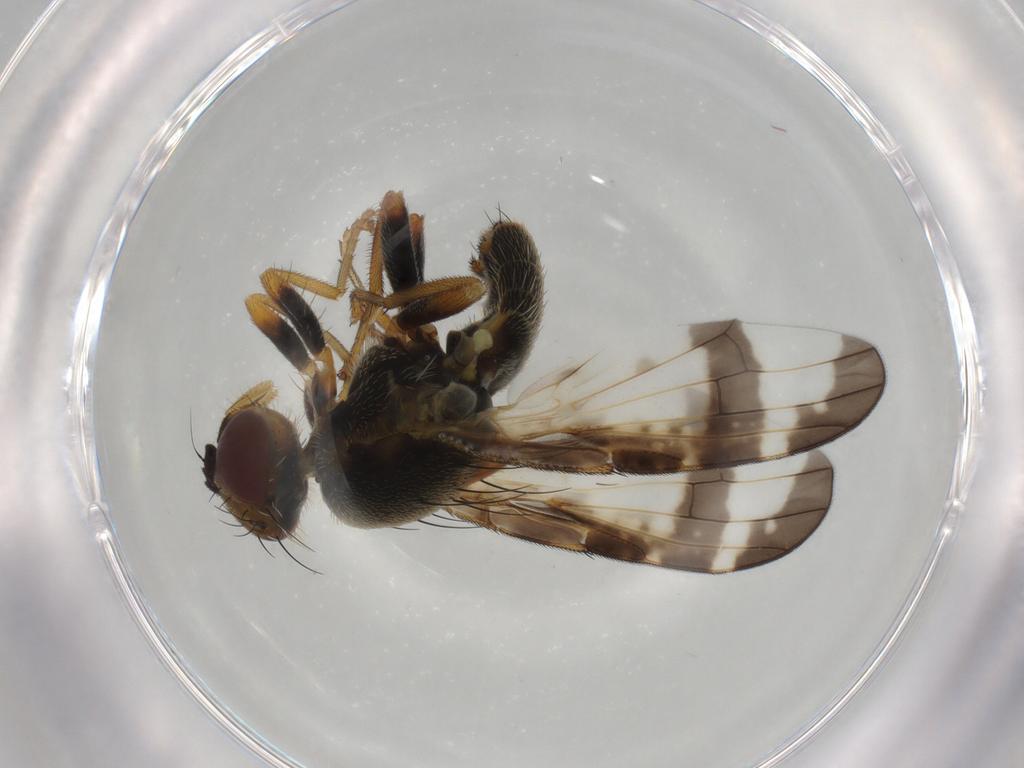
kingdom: Animalia
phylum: Arthropoda
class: Insecta
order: Diptera
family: Tephritidae
